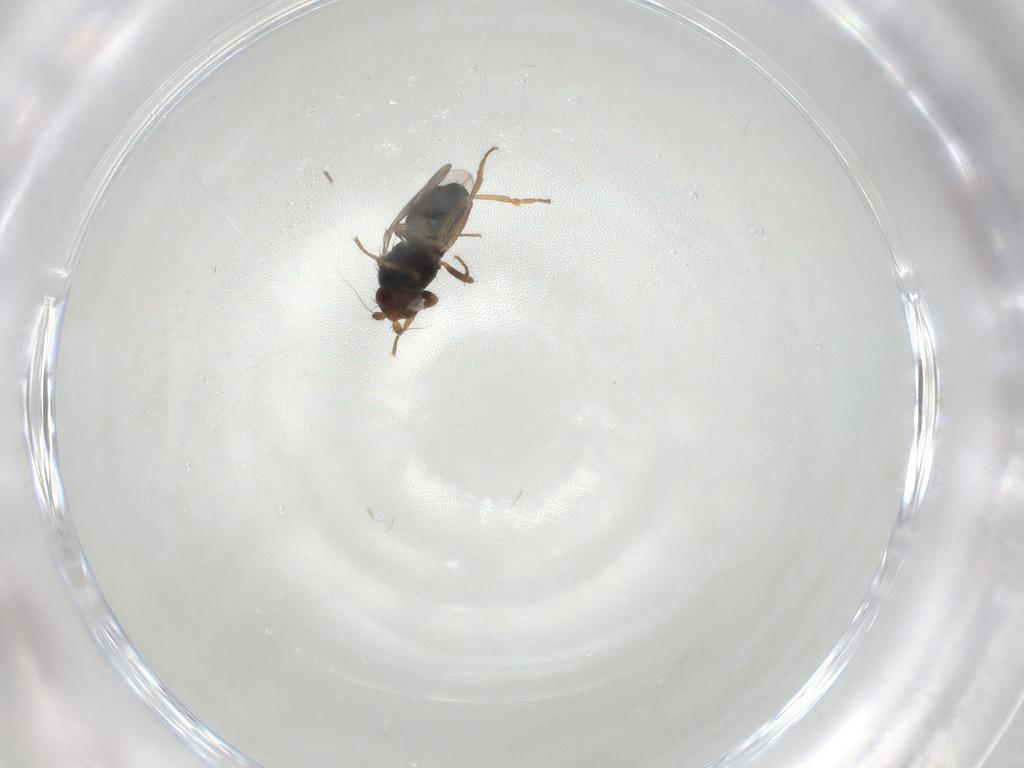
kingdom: Animalia
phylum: Arthropoda
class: Insecta
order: Diptera
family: Sphaeroceridae
